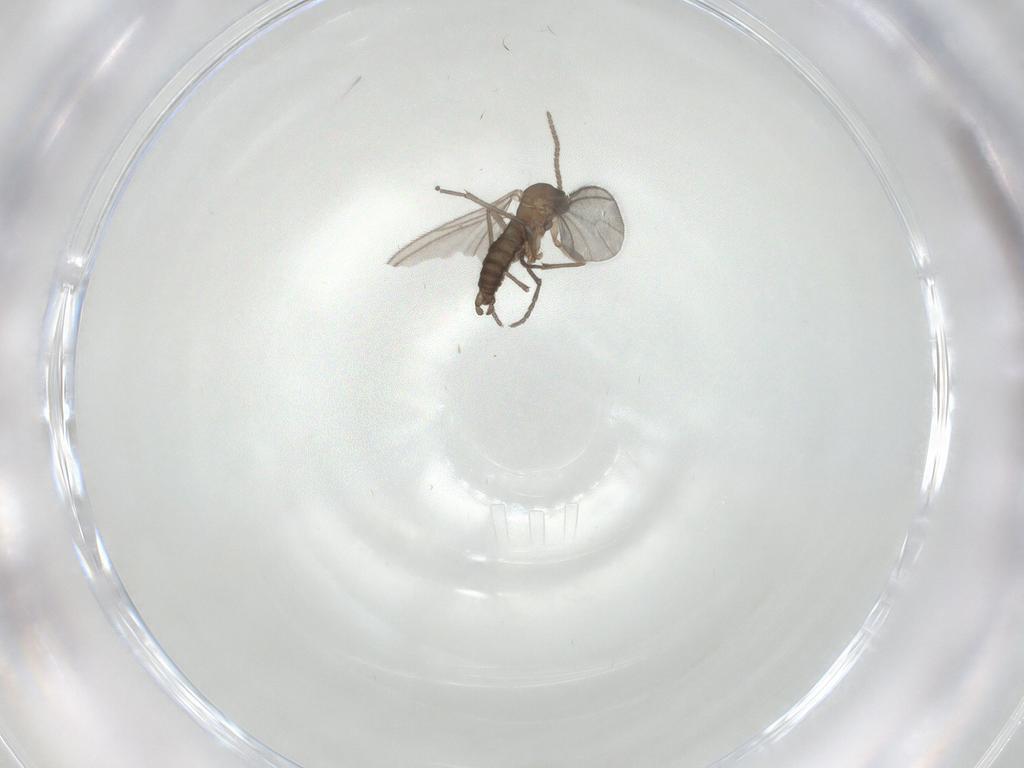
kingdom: Animalia
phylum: Arthropoda
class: Insecta
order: Diptera
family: Sciaridae
